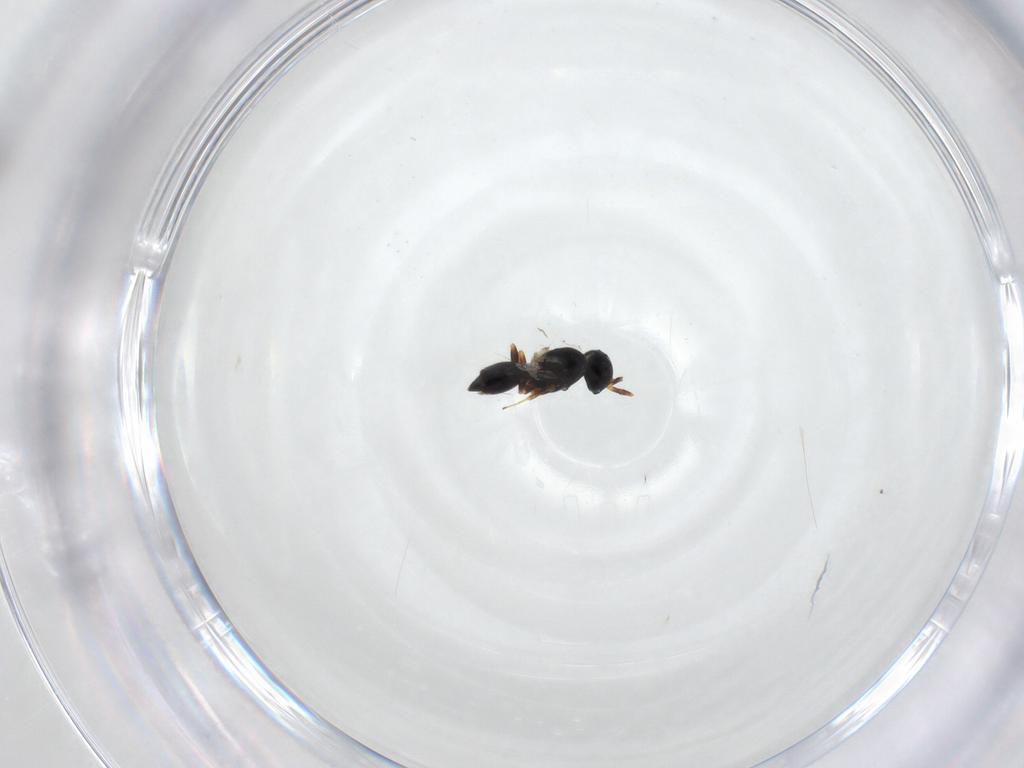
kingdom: Animalia
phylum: Arthropoda
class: Insecta
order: Hymenoptera
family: Scelionidae
